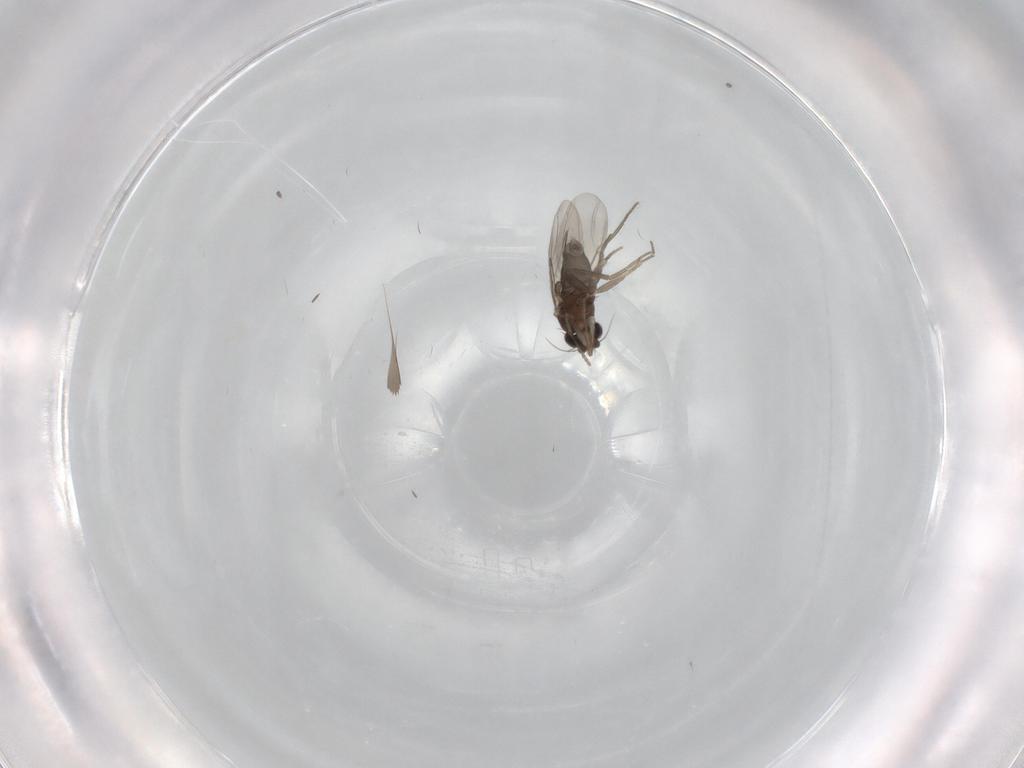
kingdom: Animalia
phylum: Arthropoda
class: Insecta
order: Diptera
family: Phoridae
